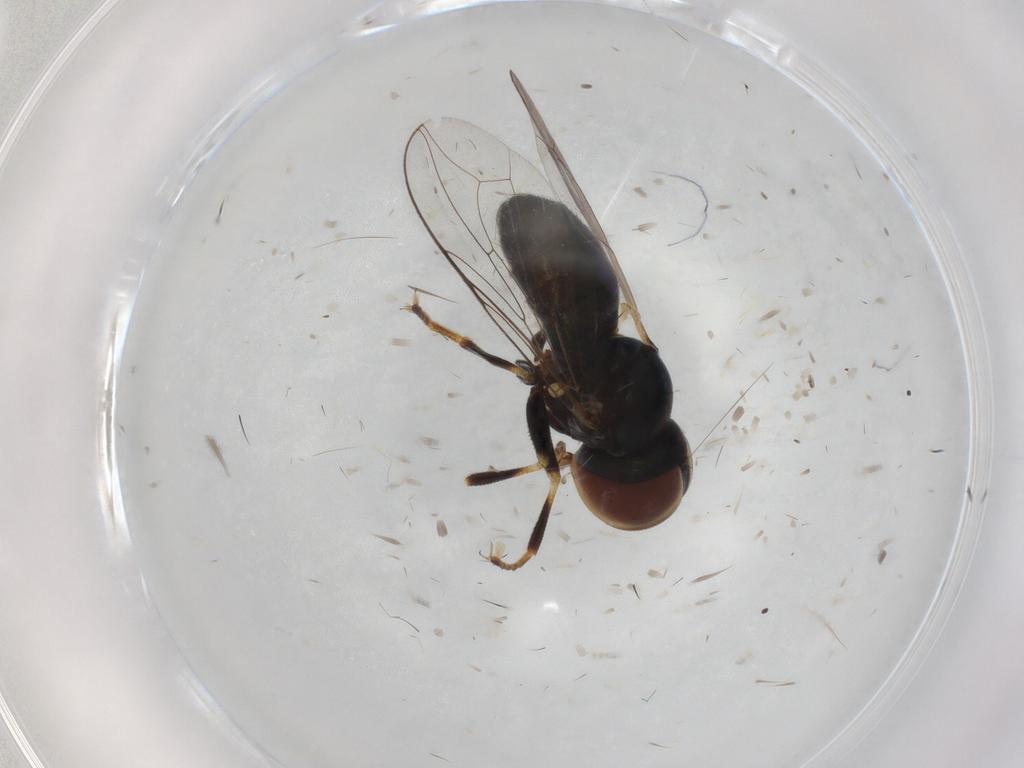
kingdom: Animalia
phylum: Arthropoda
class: Insecta
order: Diptera
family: Pipunculidae
